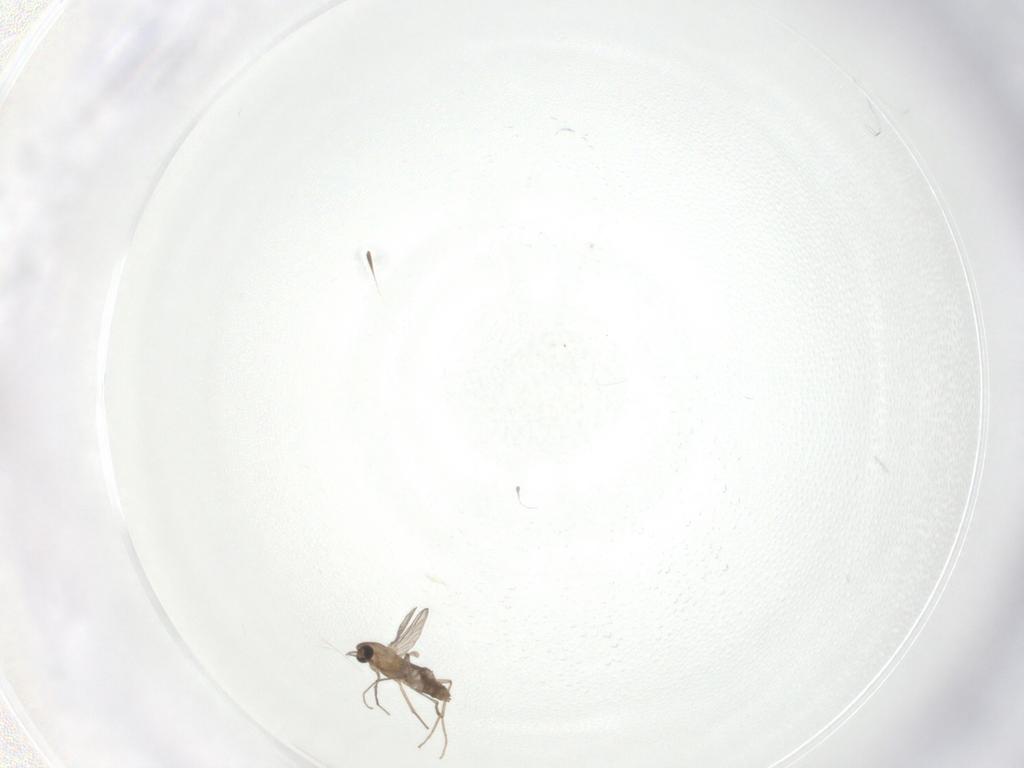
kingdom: Animalia
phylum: Arthropoda
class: Insecta
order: Diptera
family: Chironomidae
